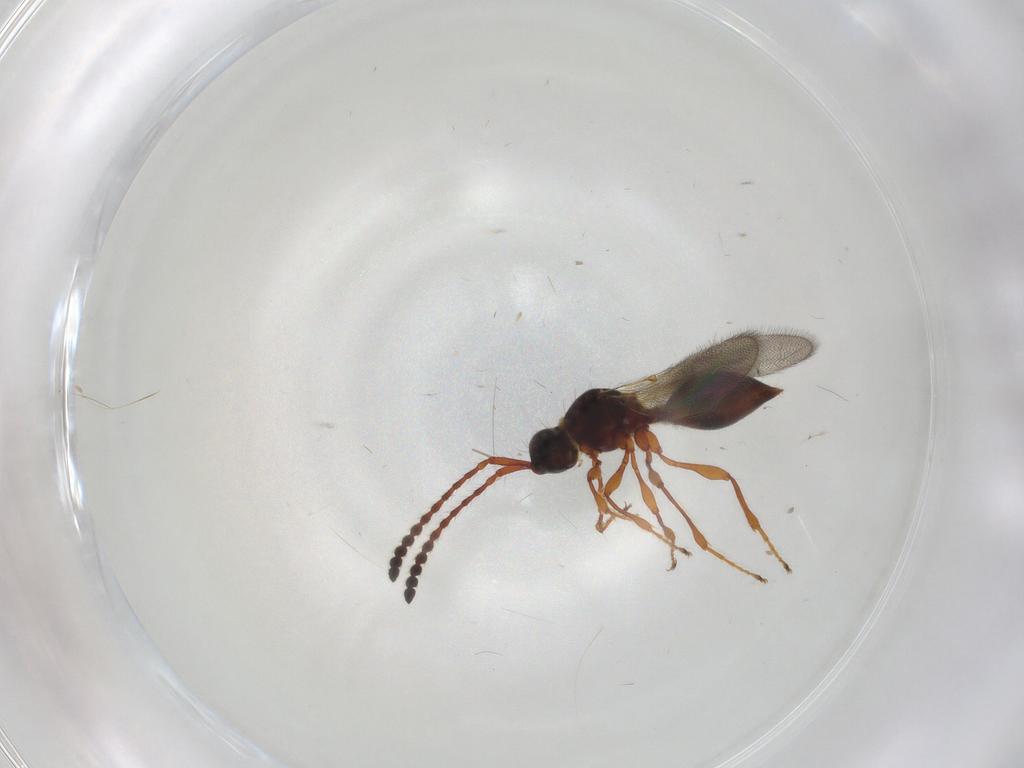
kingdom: Animalia
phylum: Arthropoda
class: Insecta
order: Hymenoptera
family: Diapriidae
